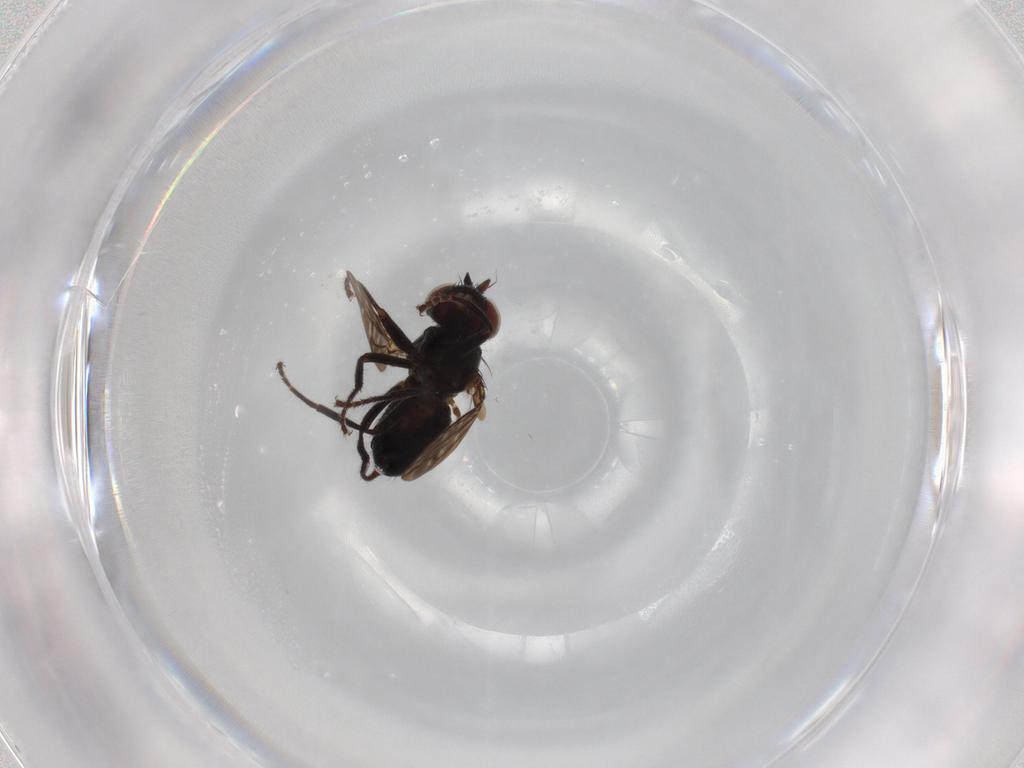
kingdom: Animalia
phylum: Arthropoda
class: Insecta
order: Diptera
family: Ephydridae
